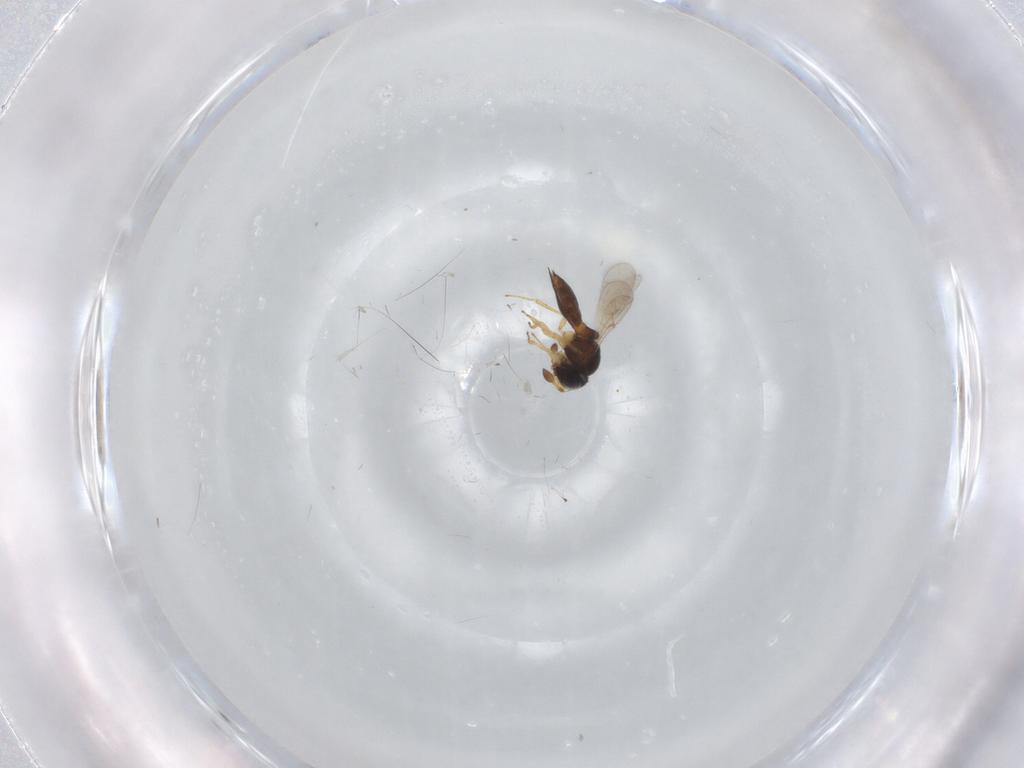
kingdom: Animalia
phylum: Arthropoda
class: Insecta
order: Hymenoptera
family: Scelionidae
